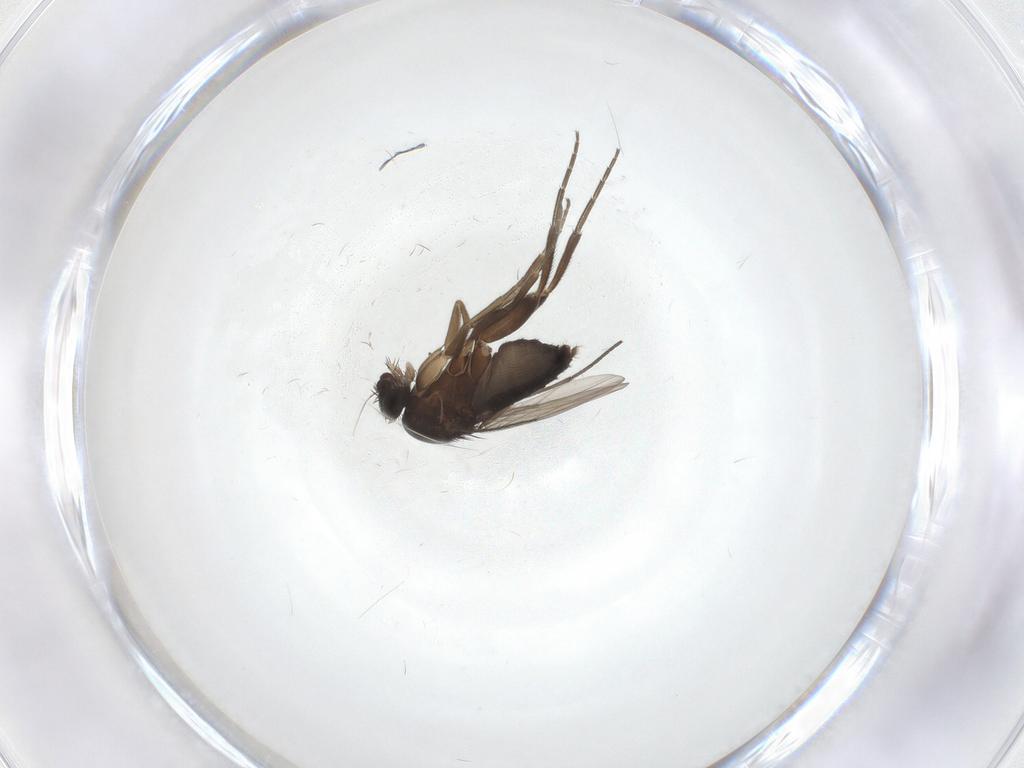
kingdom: Animalia
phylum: Arthropoda
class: Insecta
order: Diptera
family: Phoridae
